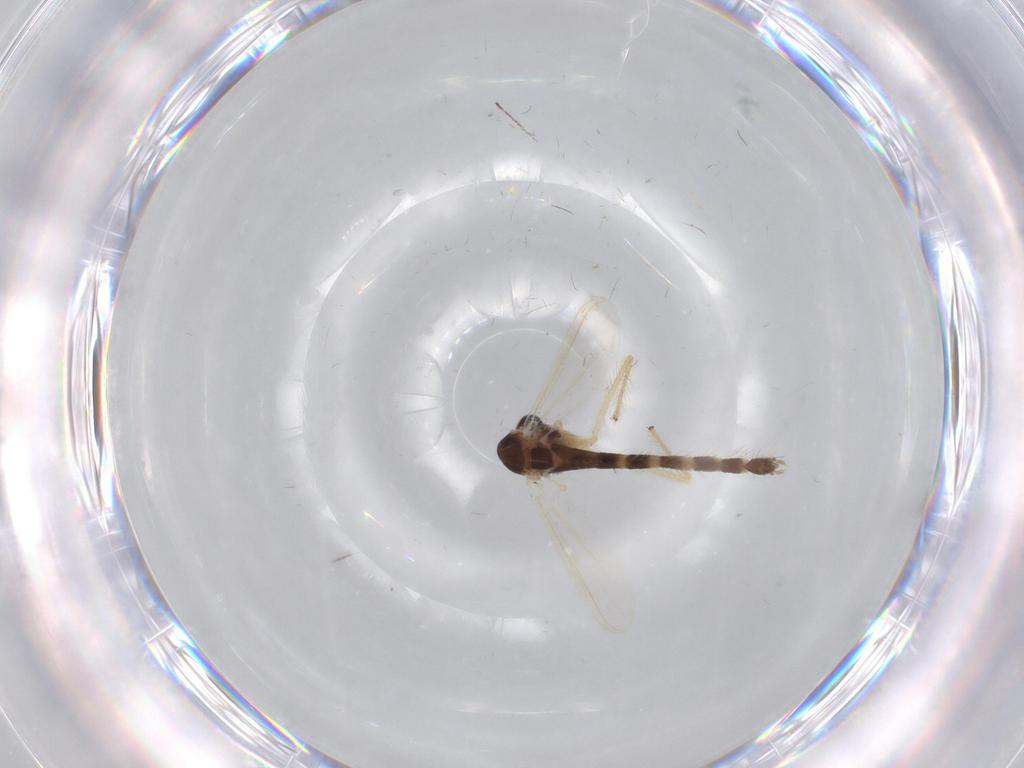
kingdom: Animalia
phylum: Arthropoda
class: Insecta
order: Diptera
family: Chironomidae
